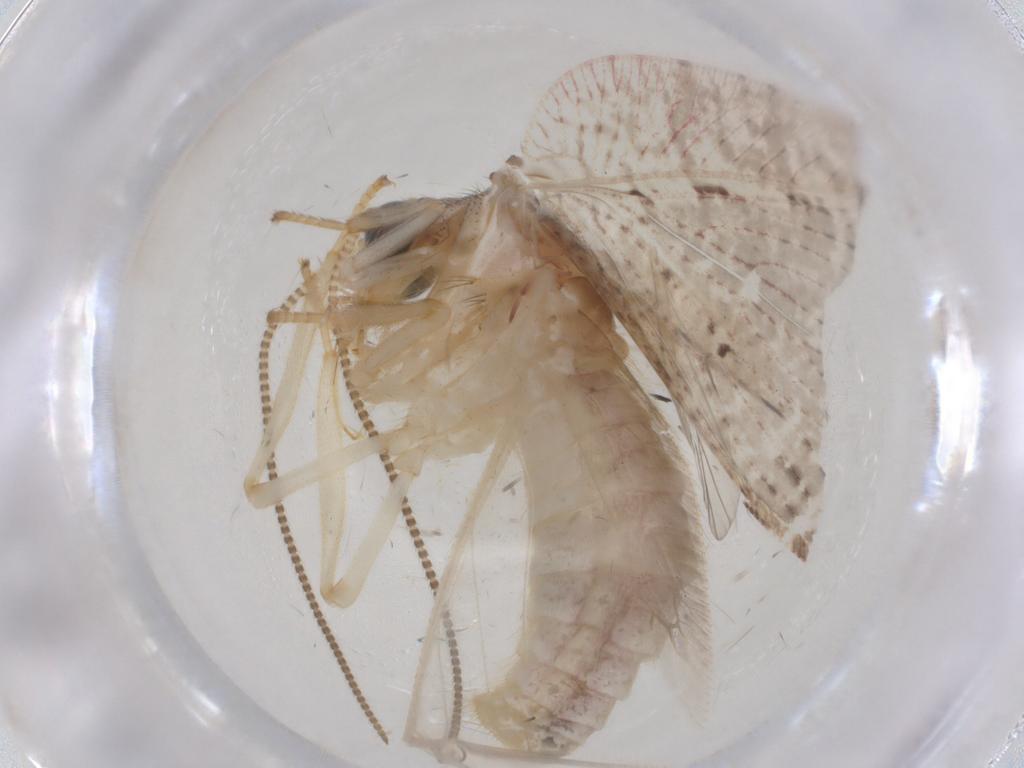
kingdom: Animalia
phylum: Arthropoda
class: Insecta
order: Neuroptera
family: Hemerobiidae
